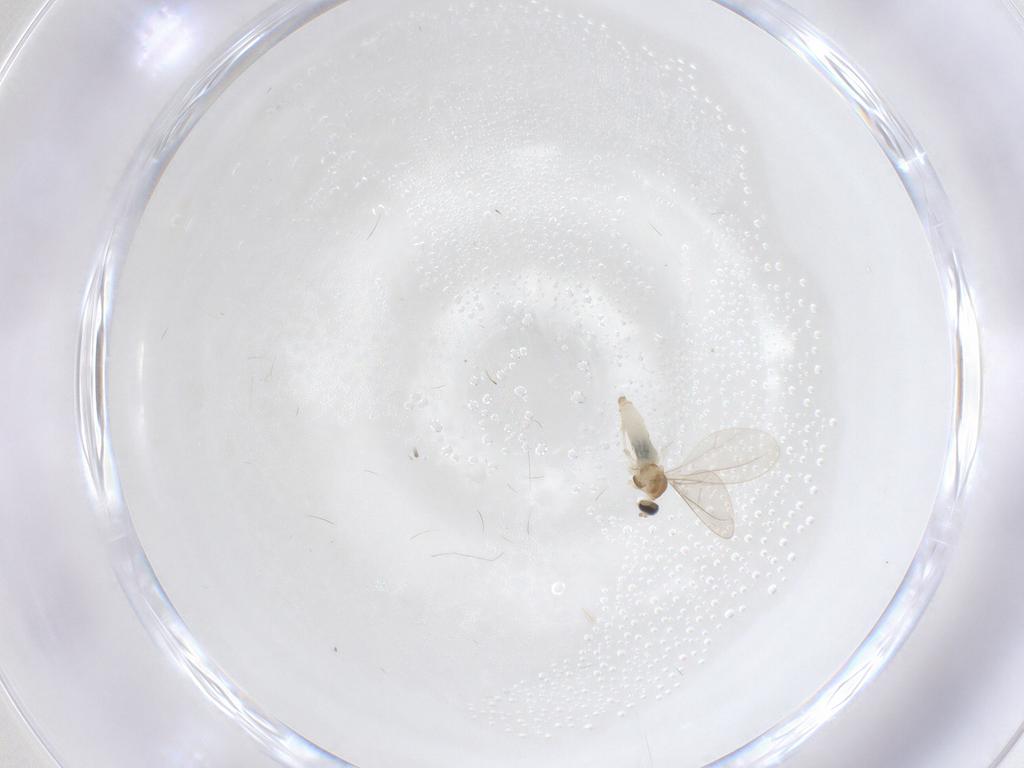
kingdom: Animalia
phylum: Arthropoda
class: Insecta
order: Diptera
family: Cecidomyiidae
